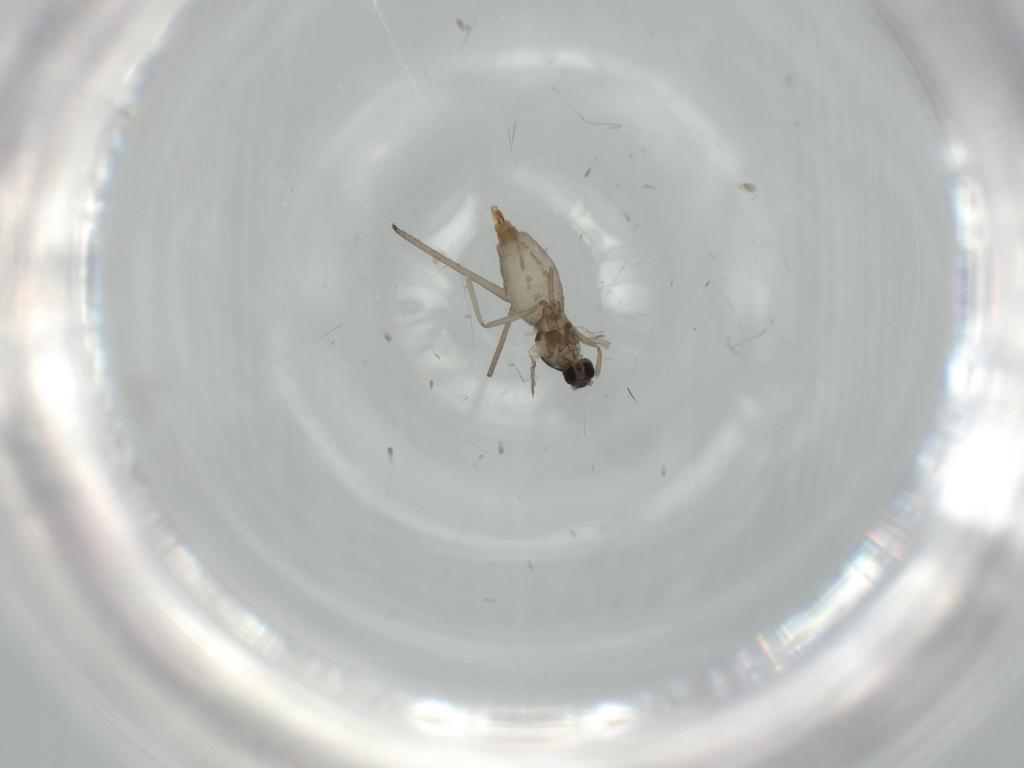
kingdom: Animalia
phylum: Arthropoda
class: Insecta
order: Diptera
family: Cecidomyiidae
